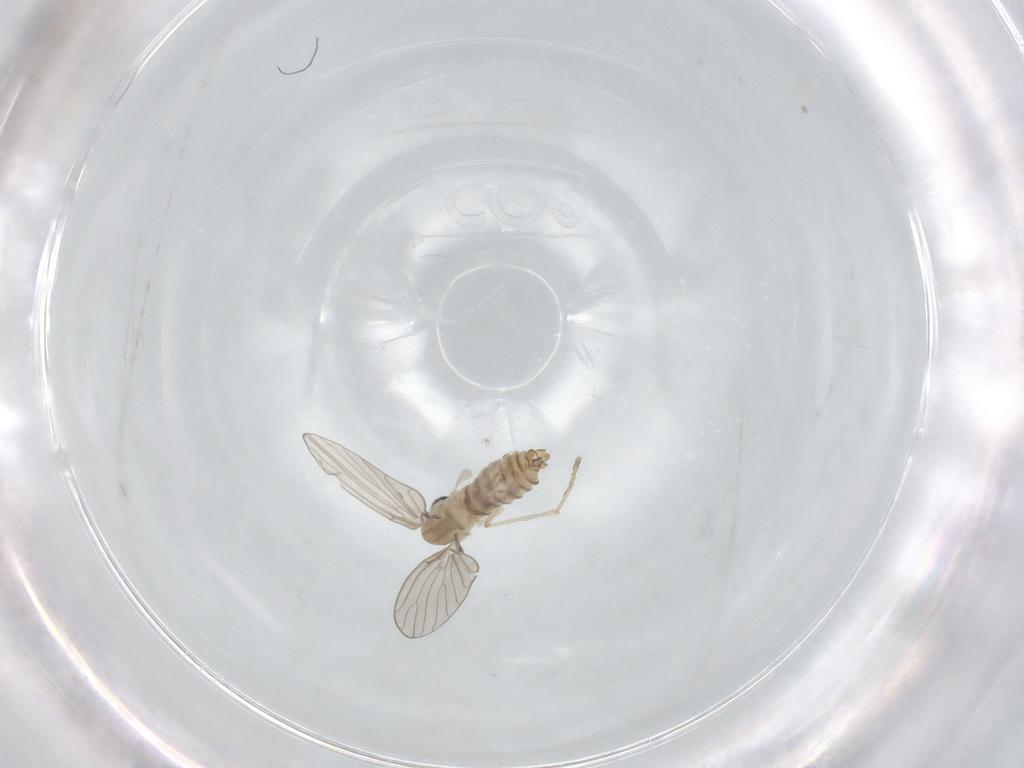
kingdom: Animalia
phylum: Arthropoda
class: Insecta
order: Diptera
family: Psychodidae
